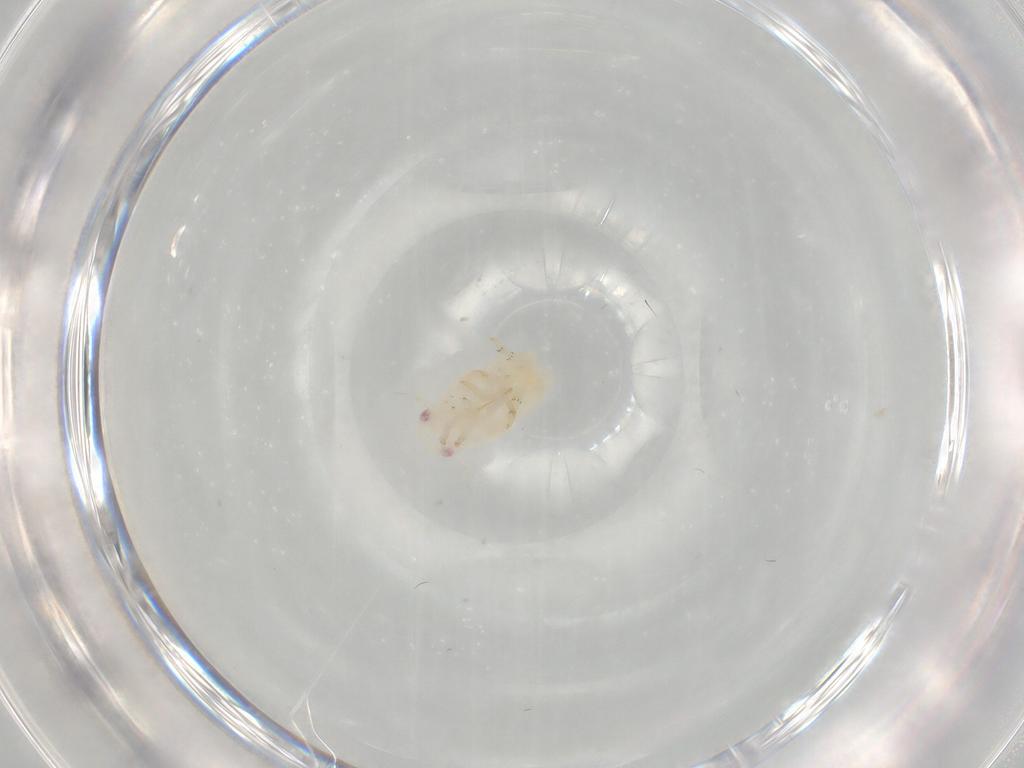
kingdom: Animalia
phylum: Arthropoda
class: Insecta
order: Hemiptera
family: Flatidae
